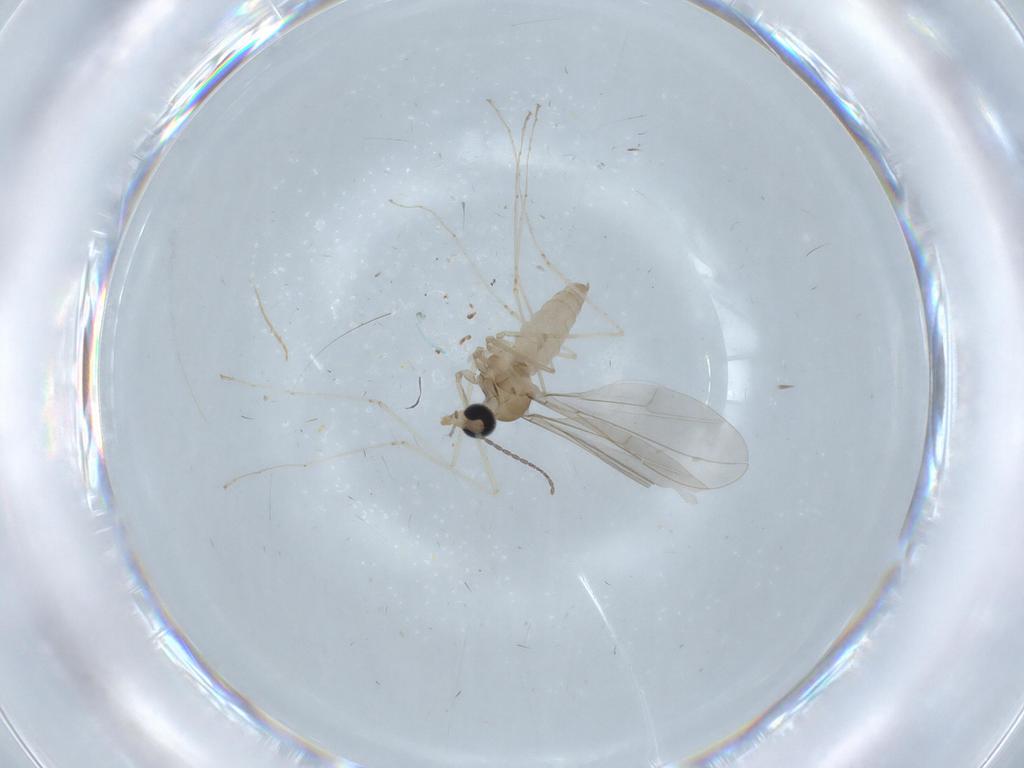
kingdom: Animalia
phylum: Arthropoda
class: Insecta
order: Diptera
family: Cecidomyiidae
